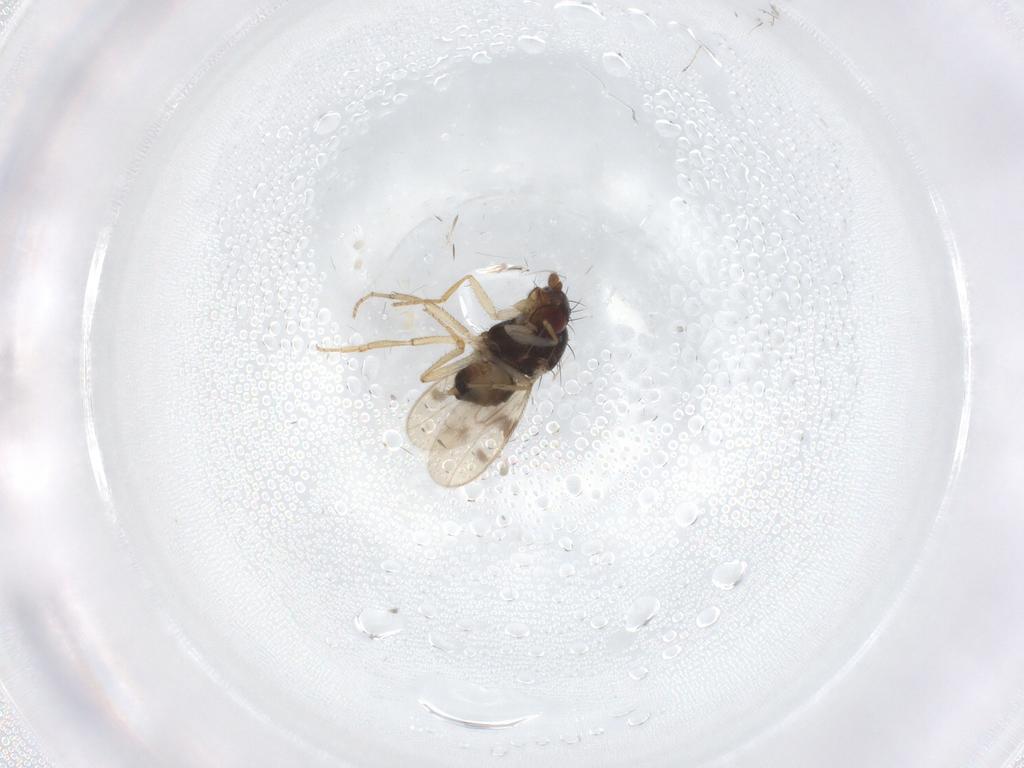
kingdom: Animalia
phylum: Arthropoda
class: Insecta
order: Diptera
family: Sphaeroceridae
